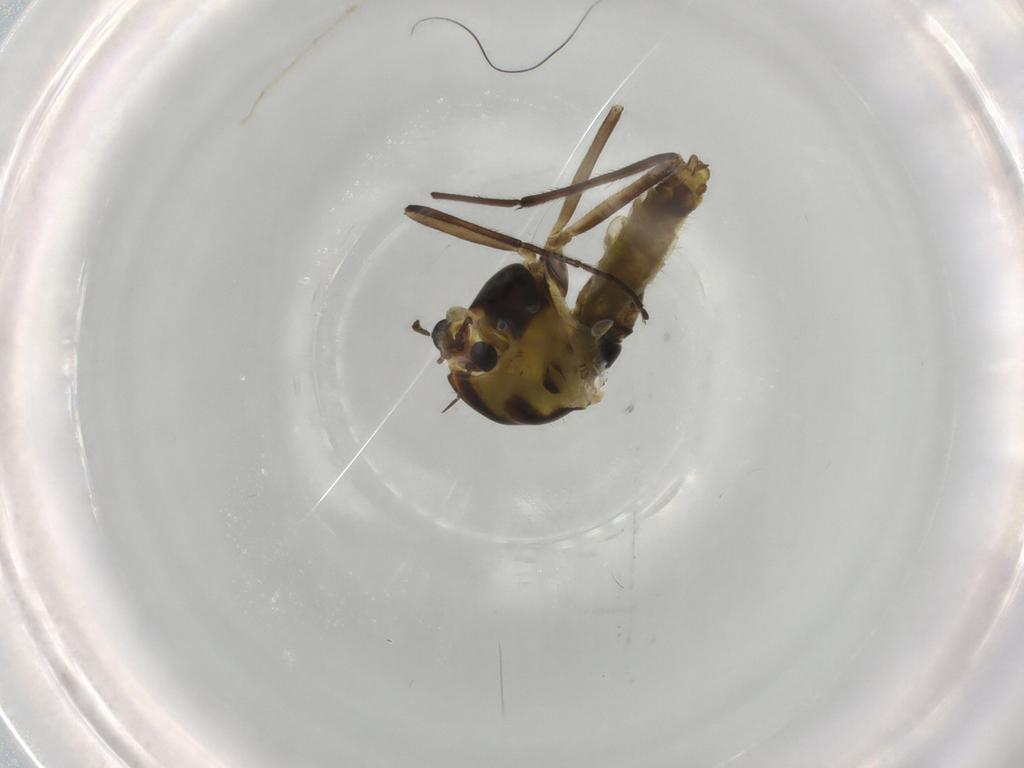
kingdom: Animalia
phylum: Arthropoda
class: Insecta
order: Diptera
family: Chironomidae
